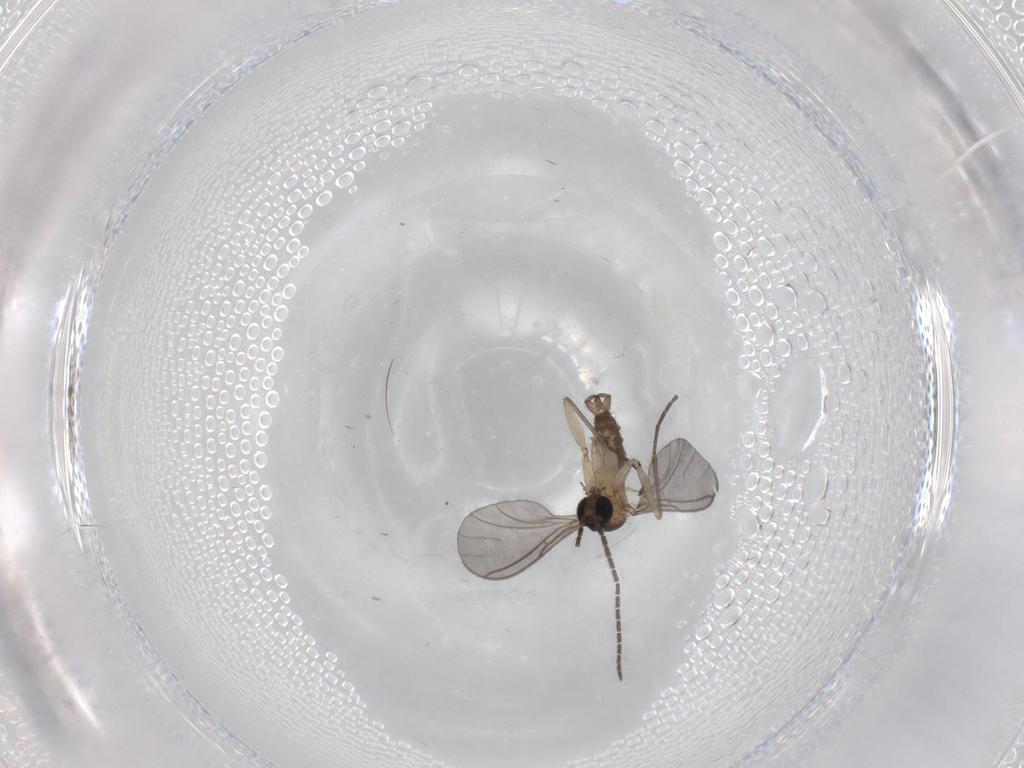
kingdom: Animalia
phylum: Arthropoda
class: Insecta
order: Diptera
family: Sciaridae
